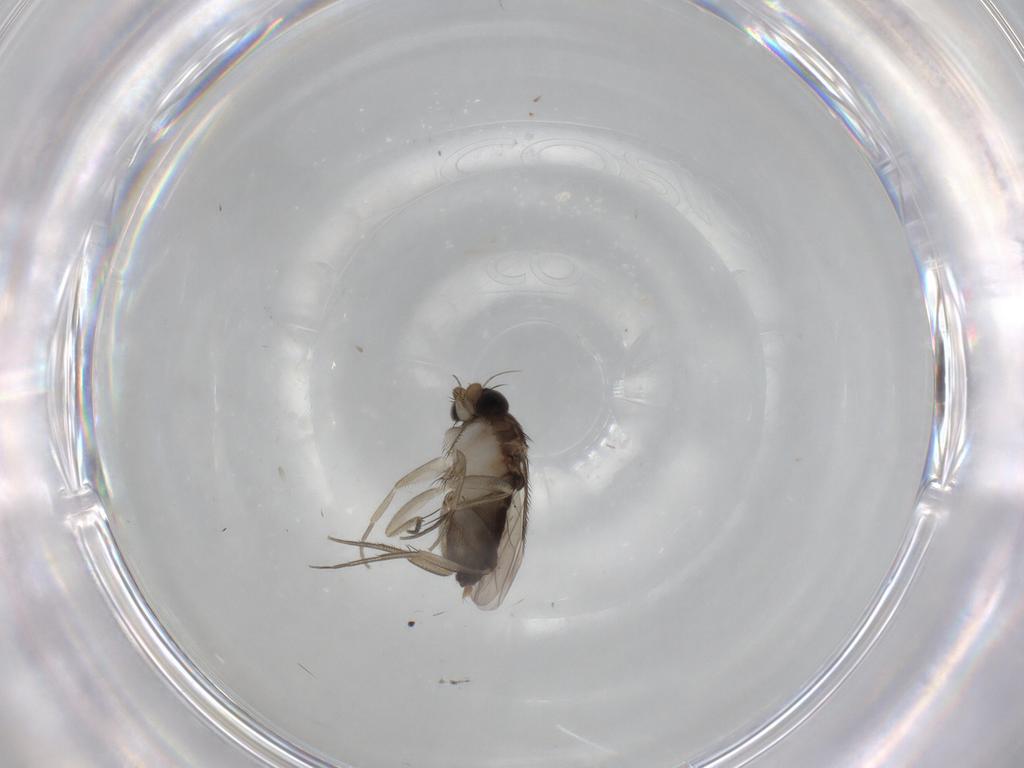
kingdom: Animalia
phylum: Arthropoda
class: Insecta
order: Diptera
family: Phoridae
